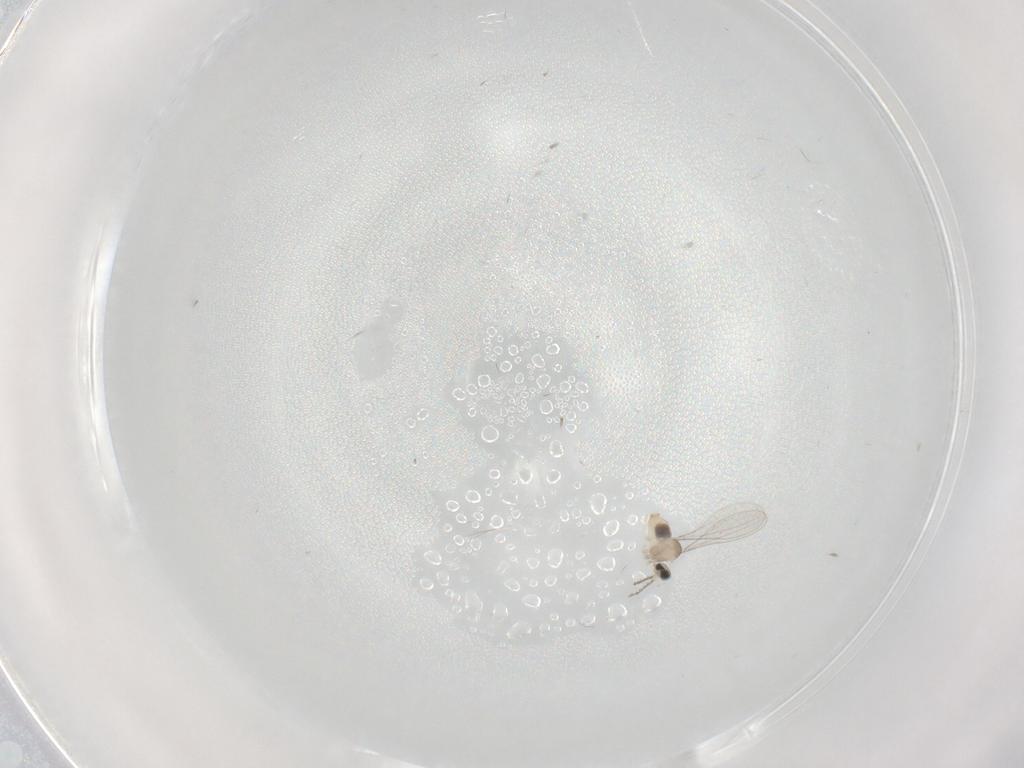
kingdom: Animalia
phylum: Arthropoda
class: Insecta
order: Diptera
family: Cecidomyiidae
